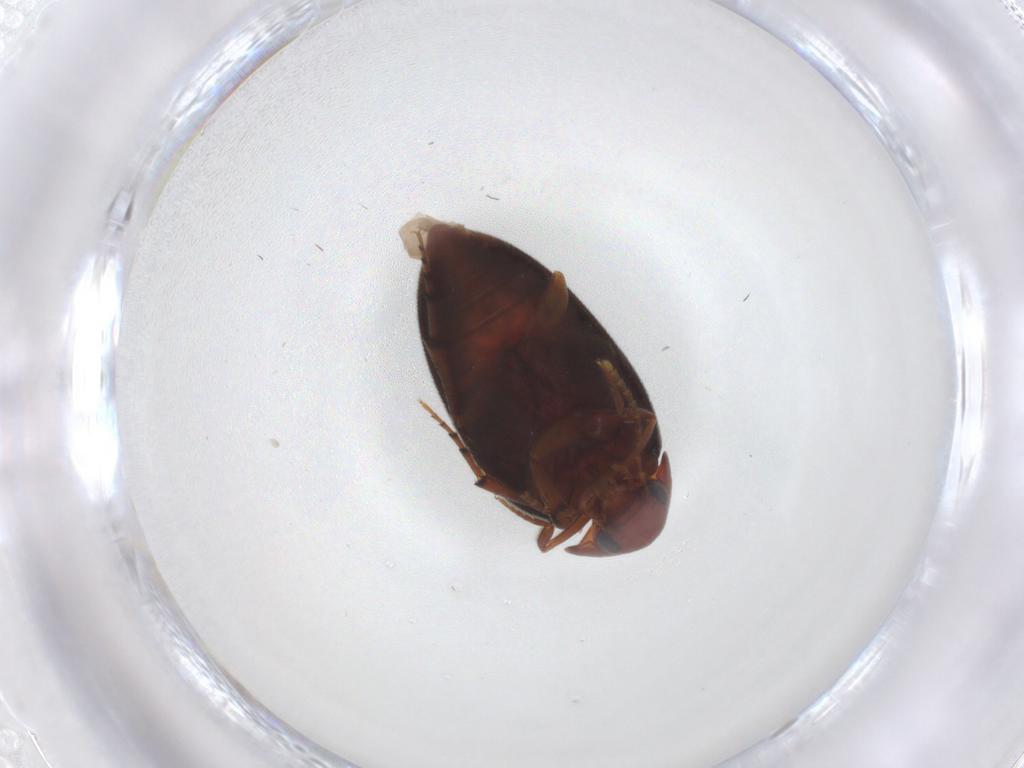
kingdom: Animalia
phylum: Arthropoda
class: Insecta
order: Coleoptera
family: Eucinetidae
